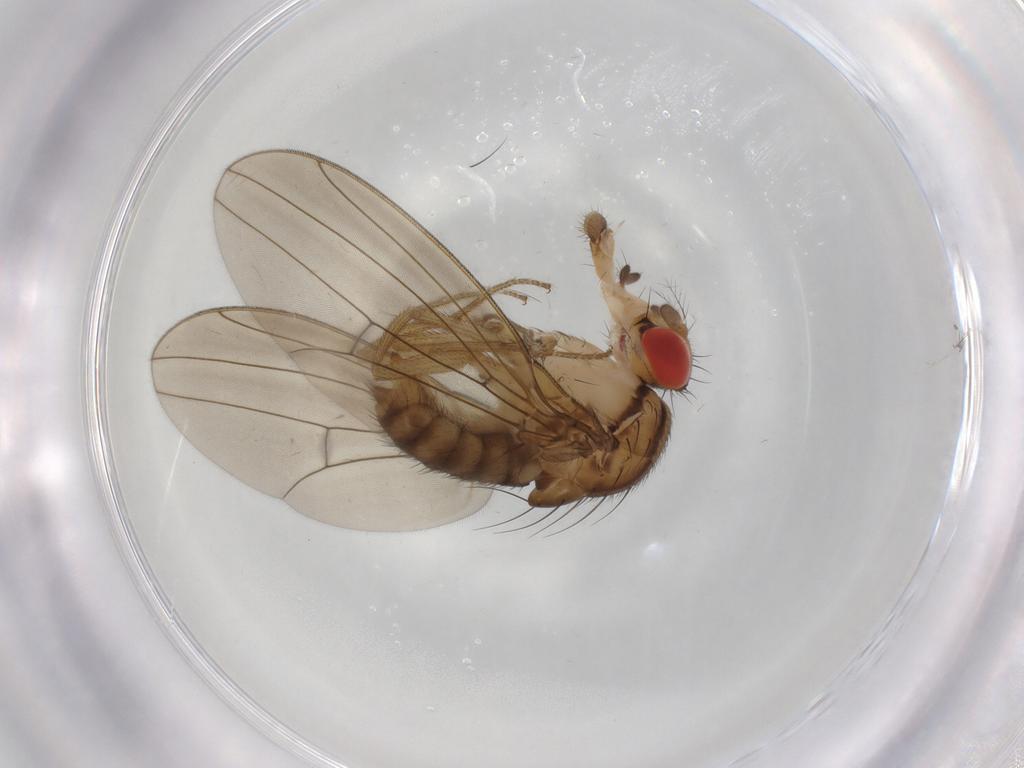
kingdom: Animalia
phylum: Arthropoda
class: Insecta
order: Diptera
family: Drosophilidae
